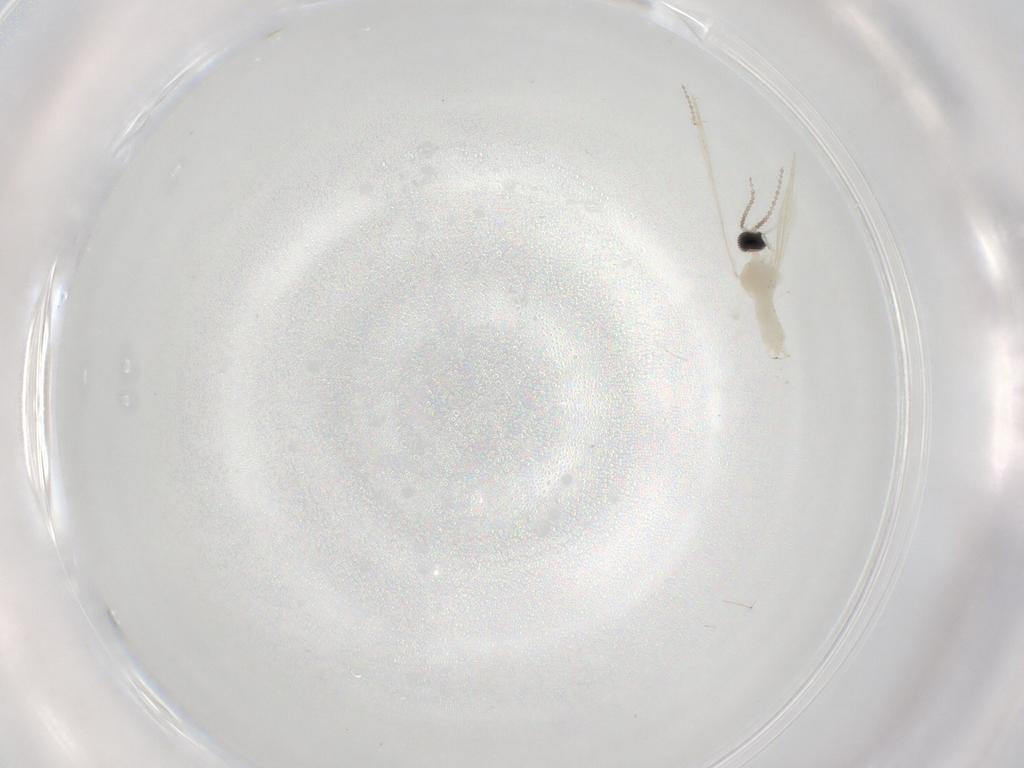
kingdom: Animalia
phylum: Arthropoda
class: Insecta
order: Diptera
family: Cecidomyiidae
